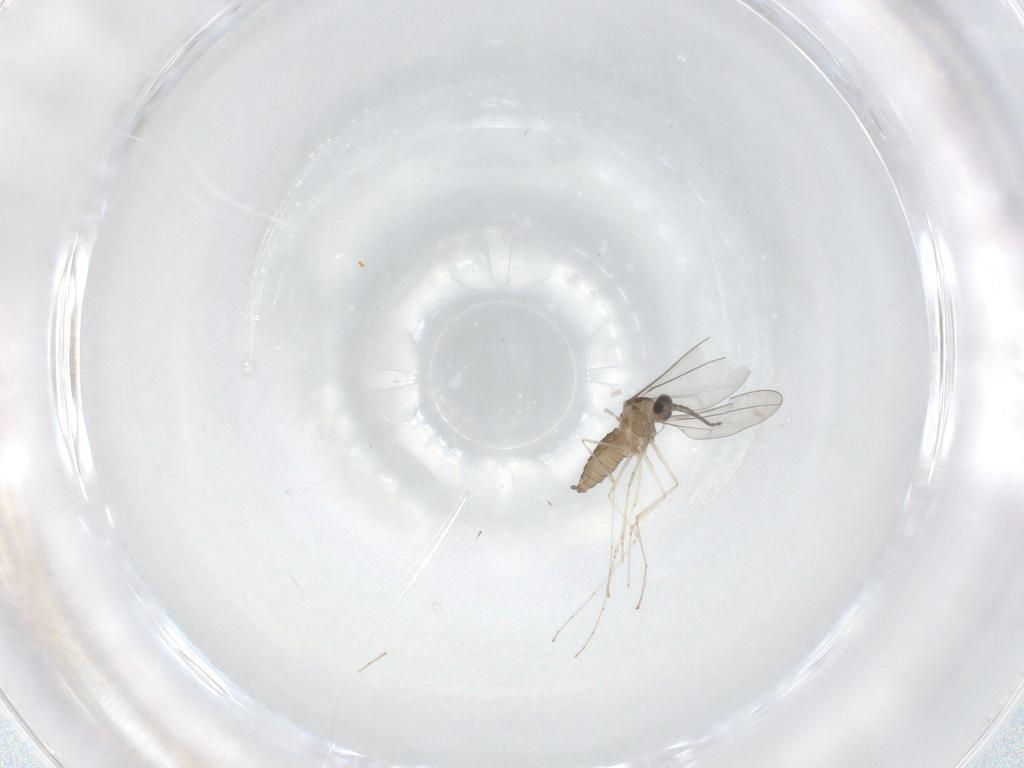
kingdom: Animalia
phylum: Arthropoda
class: Insecta
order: Diptera
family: Cecidomyiidae
